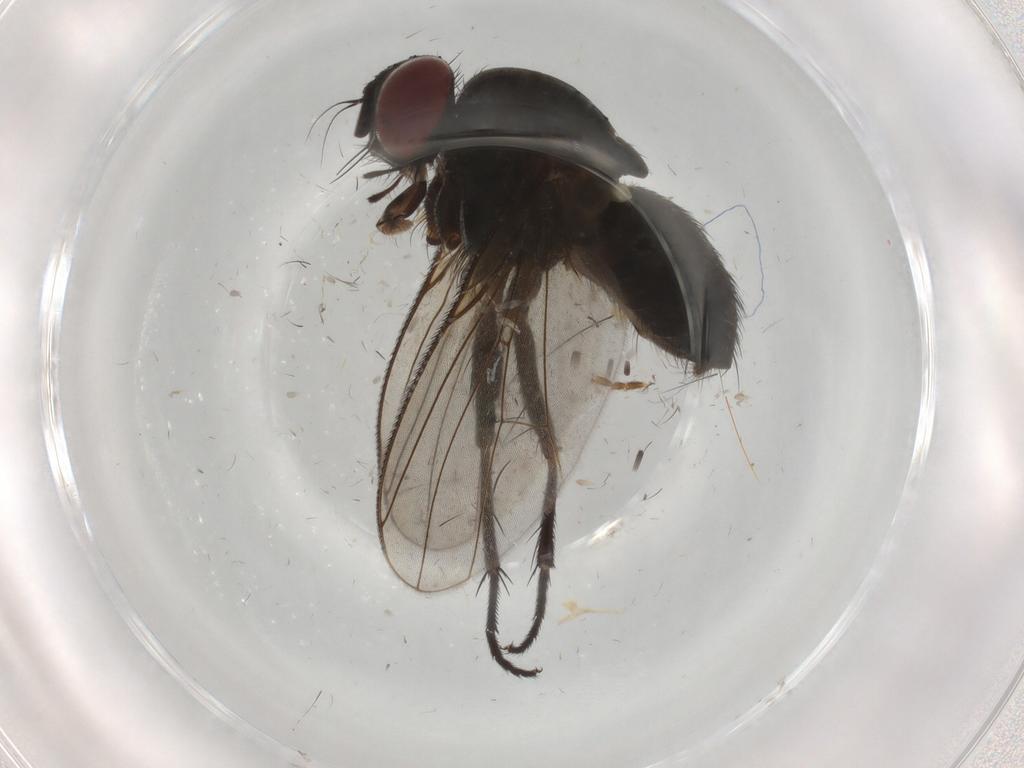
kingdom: Animalia
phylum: Arthropoda
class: Insecta
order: Diptera
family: Muscidae
